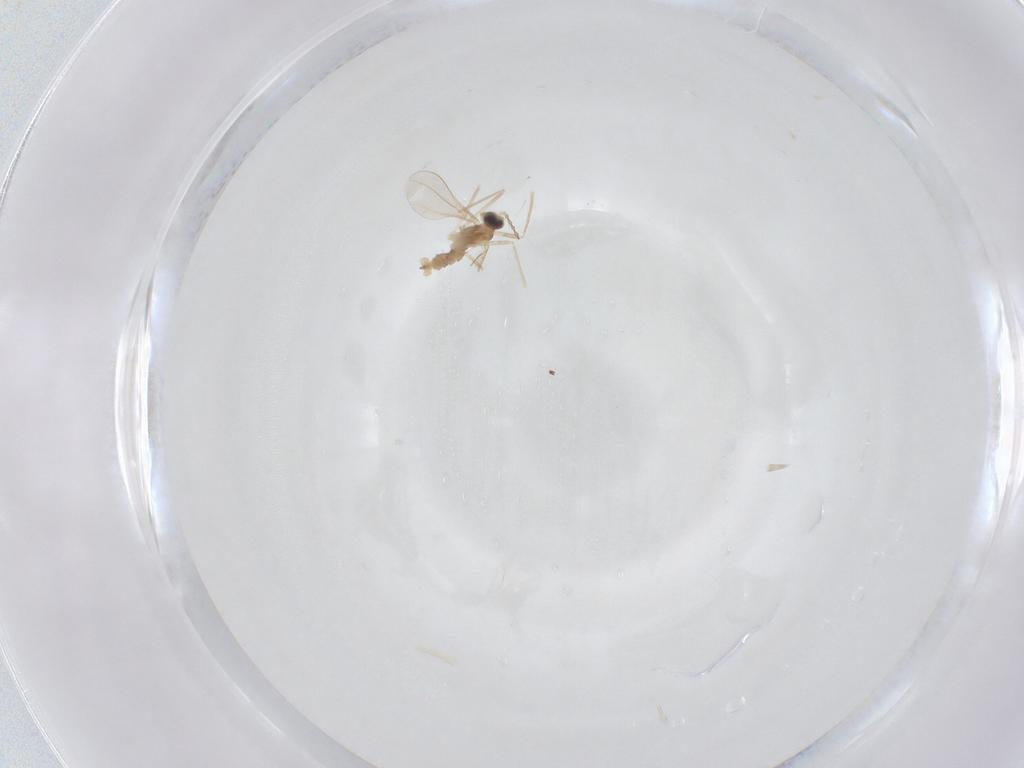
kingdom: Animalia
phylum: Arthropoda
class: Insecta
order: Diptera
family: Cecidomyiidae
